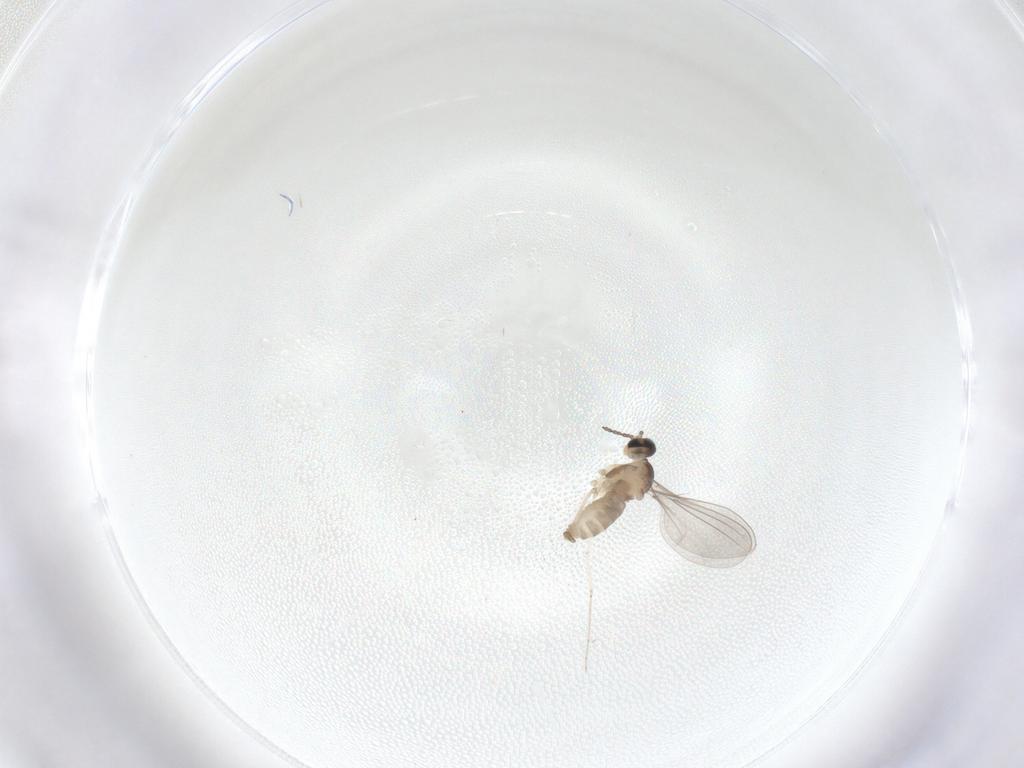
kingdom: Animalia
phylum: Arthropoda
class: Insecta
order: Diptera
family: Cecidomyiidae
